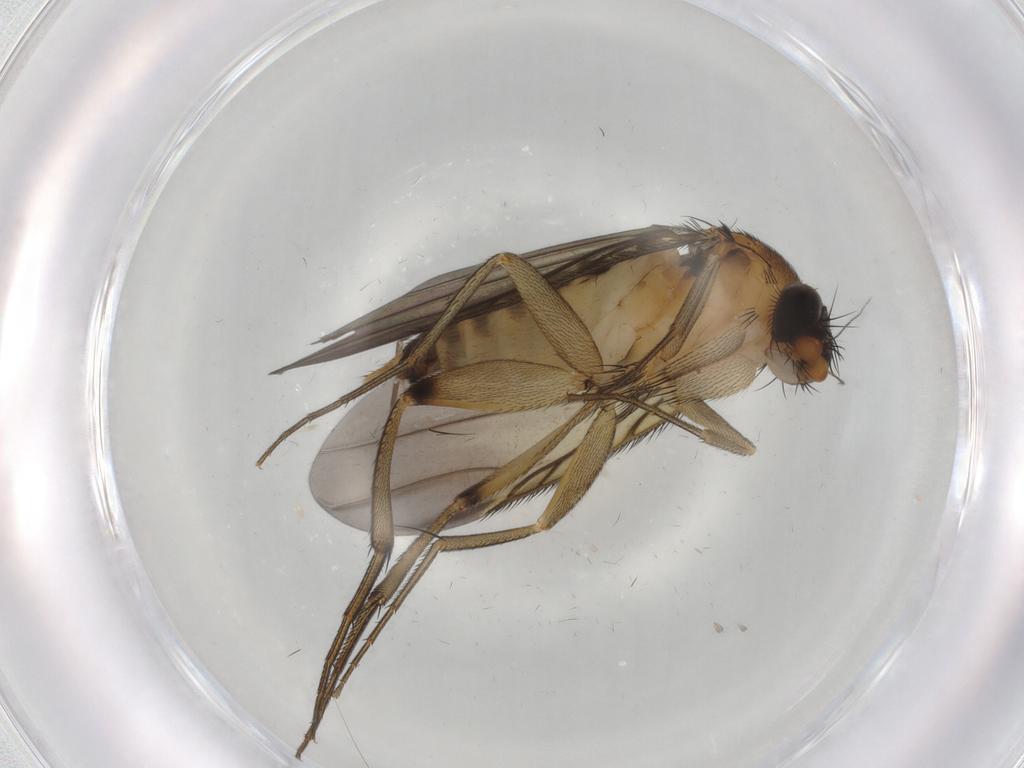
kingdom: Animalia
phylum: Arthropoda
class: Insecta
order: Diptera
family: Phoridae
